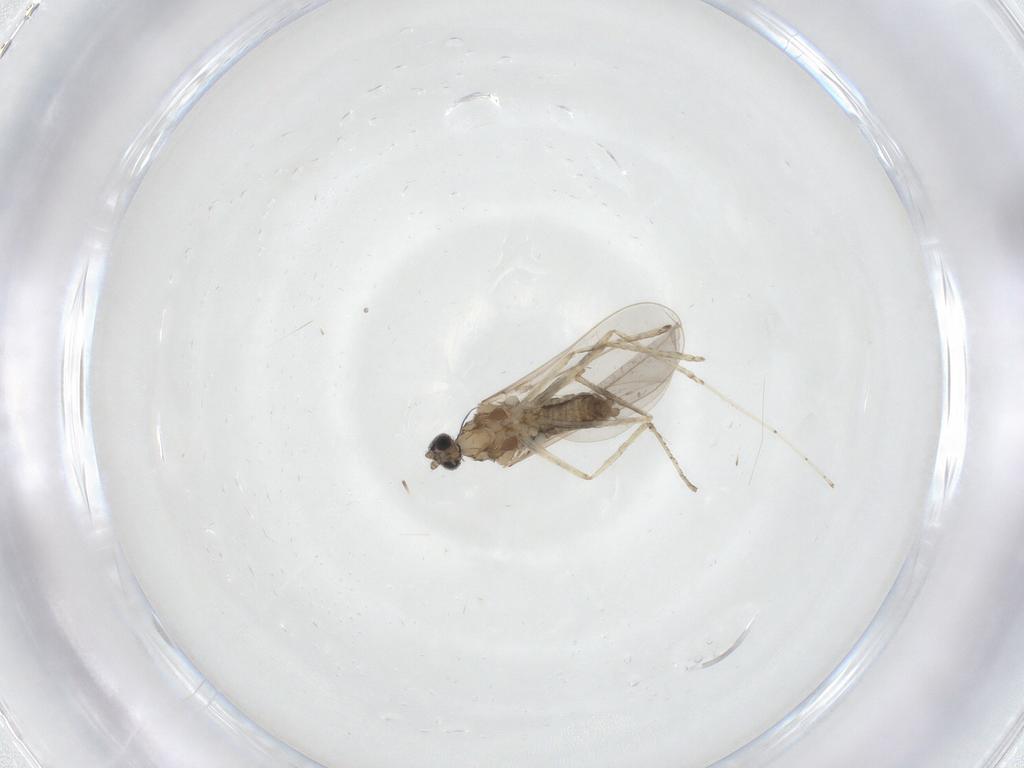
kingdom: Animalia
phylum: Arthropoda
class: Insecta
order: Diptera
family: Cecidomyiidae
